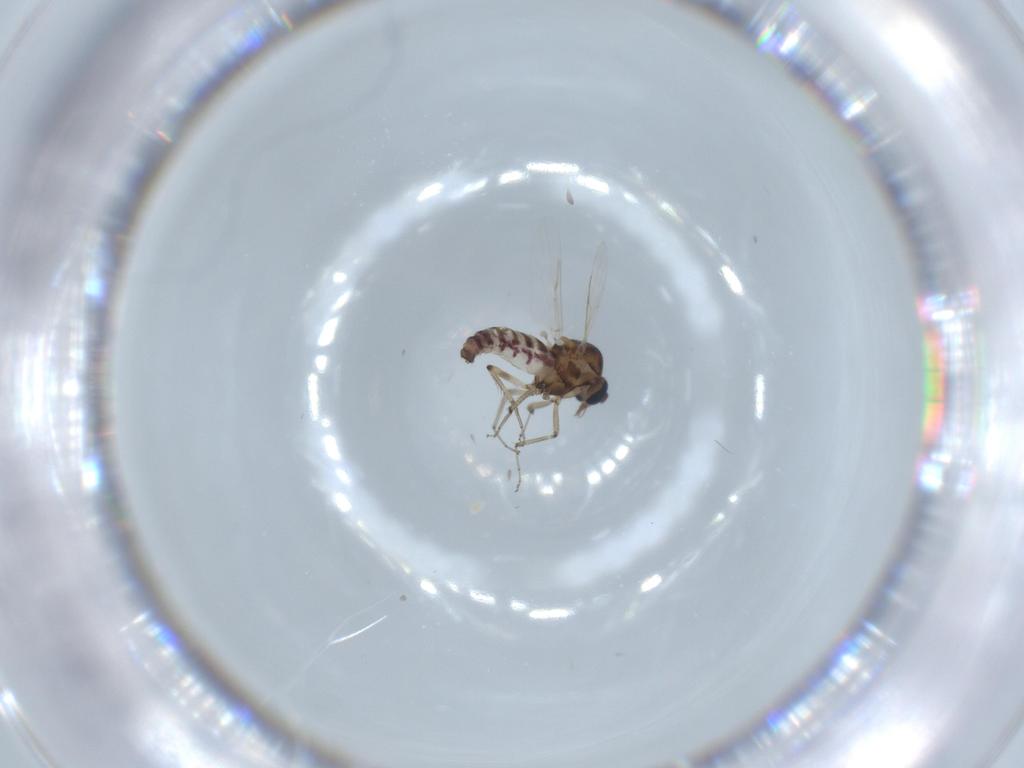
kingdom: Animalia
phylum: Arthropoda
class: Insecta
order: Diptera
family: Ceratopogonidae
